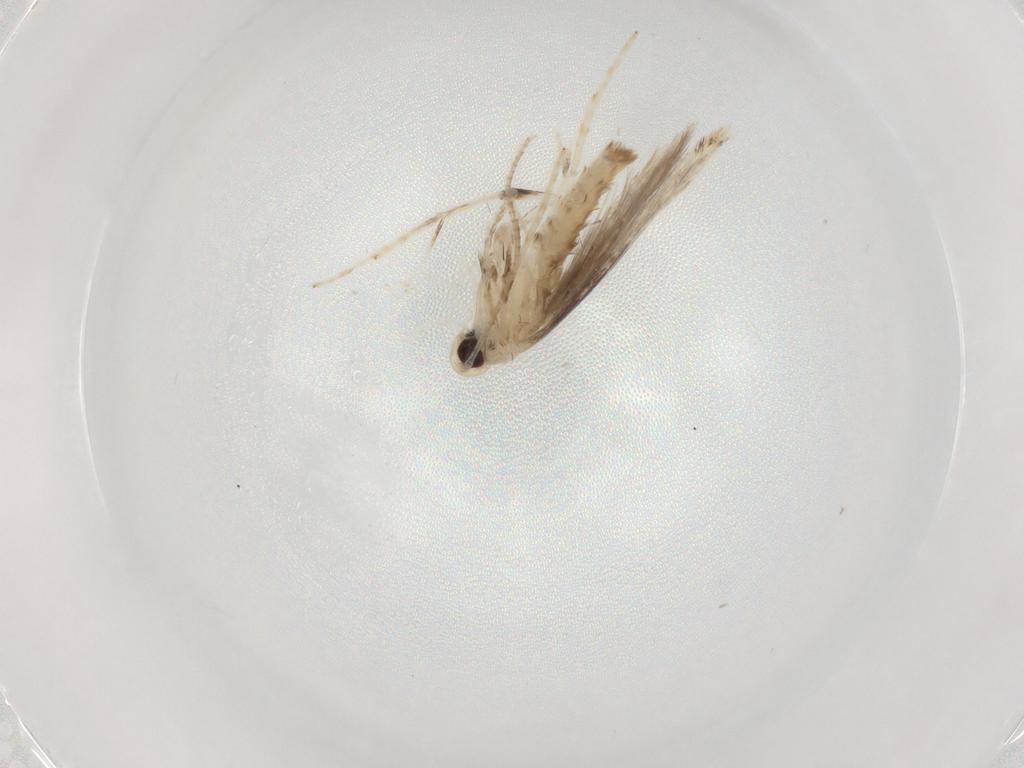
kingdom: Animalia
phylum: Arthropoda
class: Insecta
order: Lepidoptera
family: Gracillariidae
